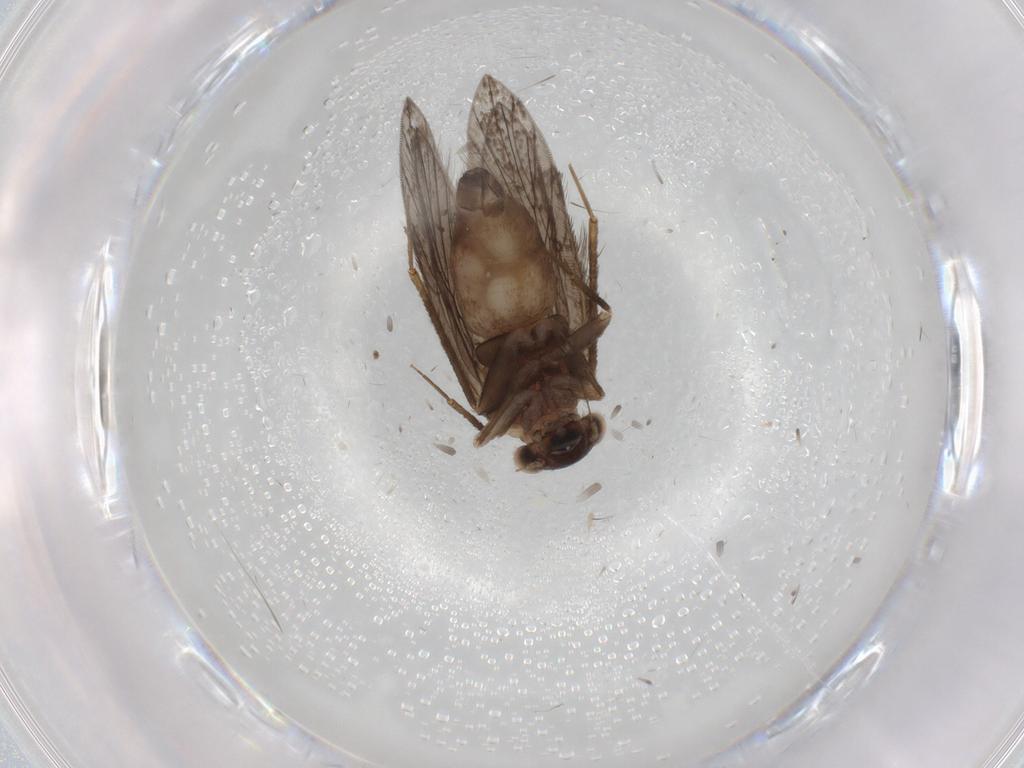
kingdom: Animalia
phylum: Arthropoda
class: Insecta
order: Psocodea
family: Lepidopsocidae
